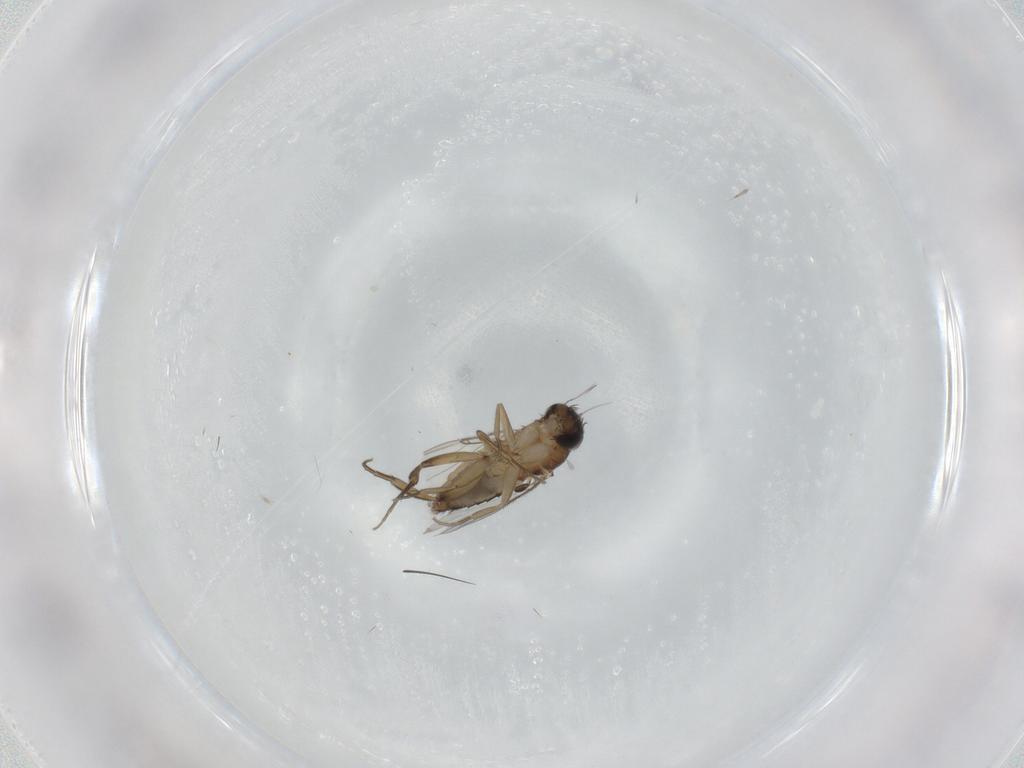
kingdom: Animalia
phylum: Arthropoda
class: Insecta
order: Diptera
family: Phoridae
